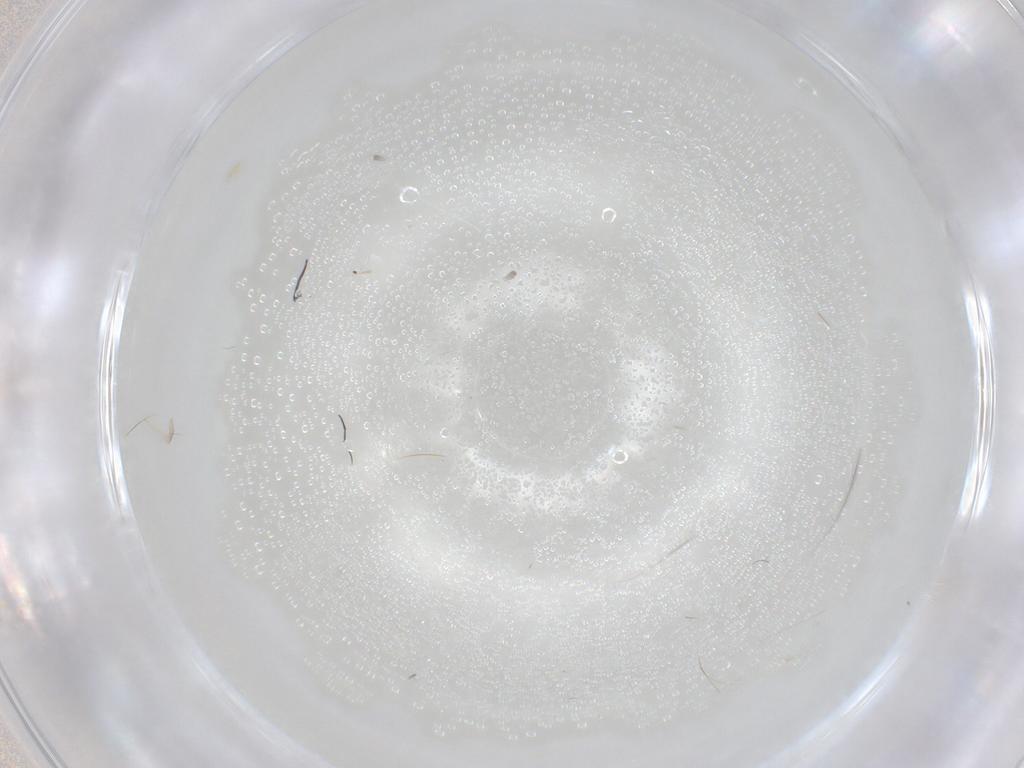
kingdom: Animalia
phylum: Arthropoda
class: Insecta
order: Diptera
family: Cecidomyiidae
